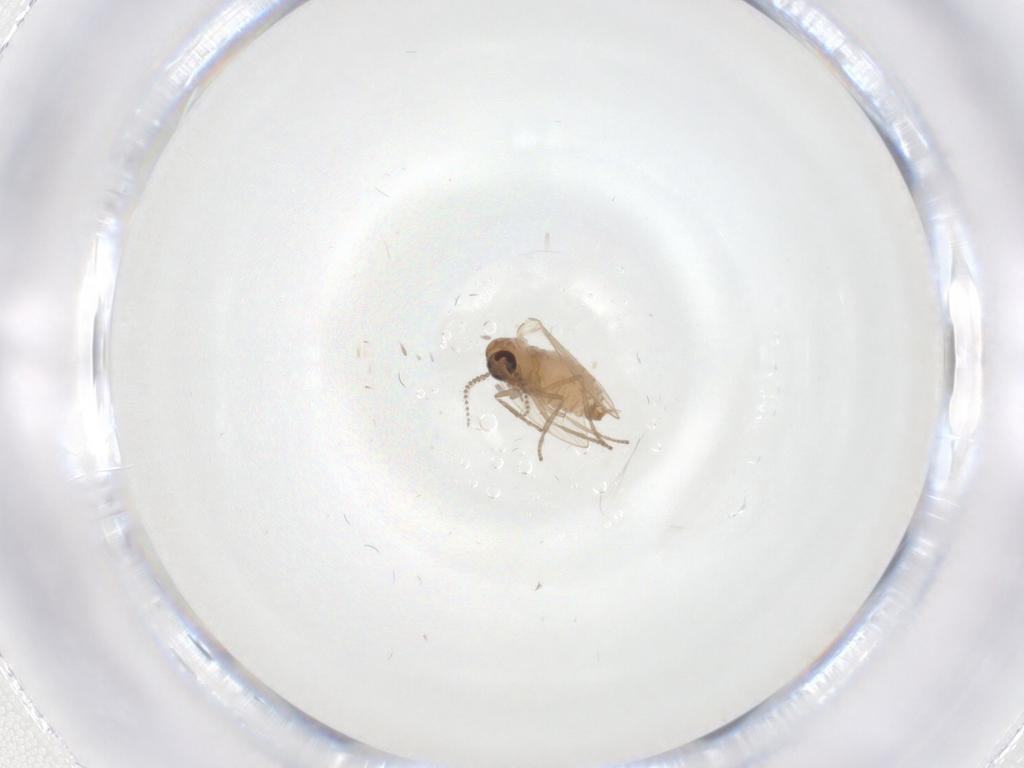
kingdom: Animalia
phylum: Arthropoda
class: Insecta
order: Diptera
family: Psychodidae
